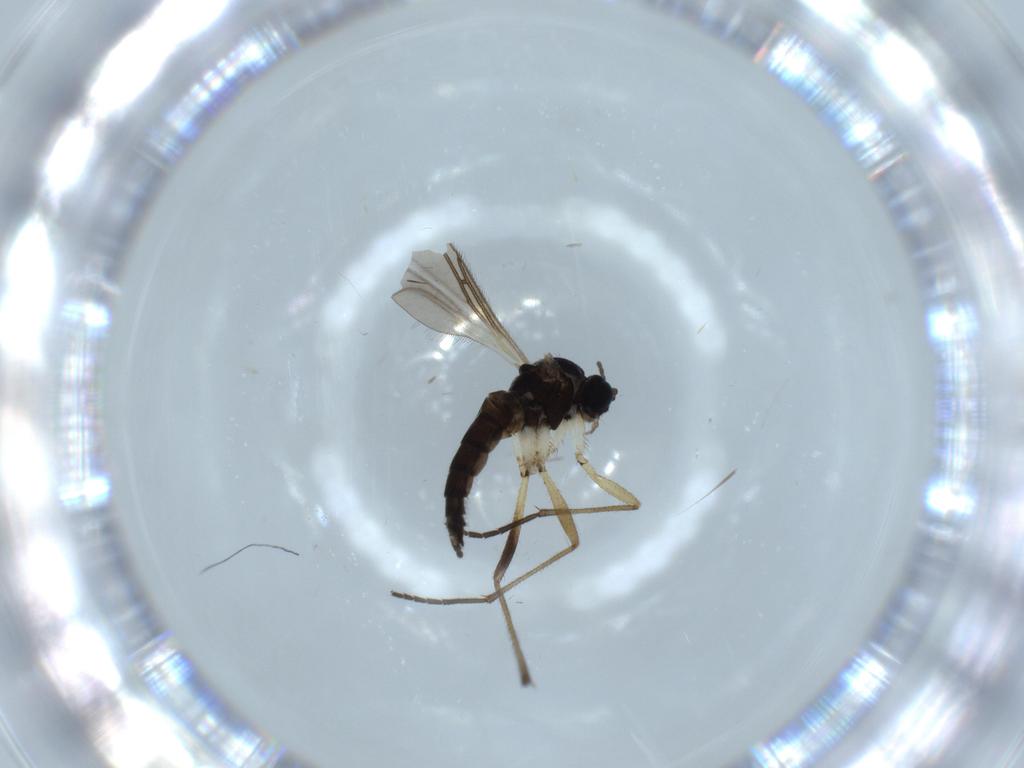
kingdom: Animalia
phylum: Arthropoda
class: Insecta
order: Diptera
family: Sciaridae
